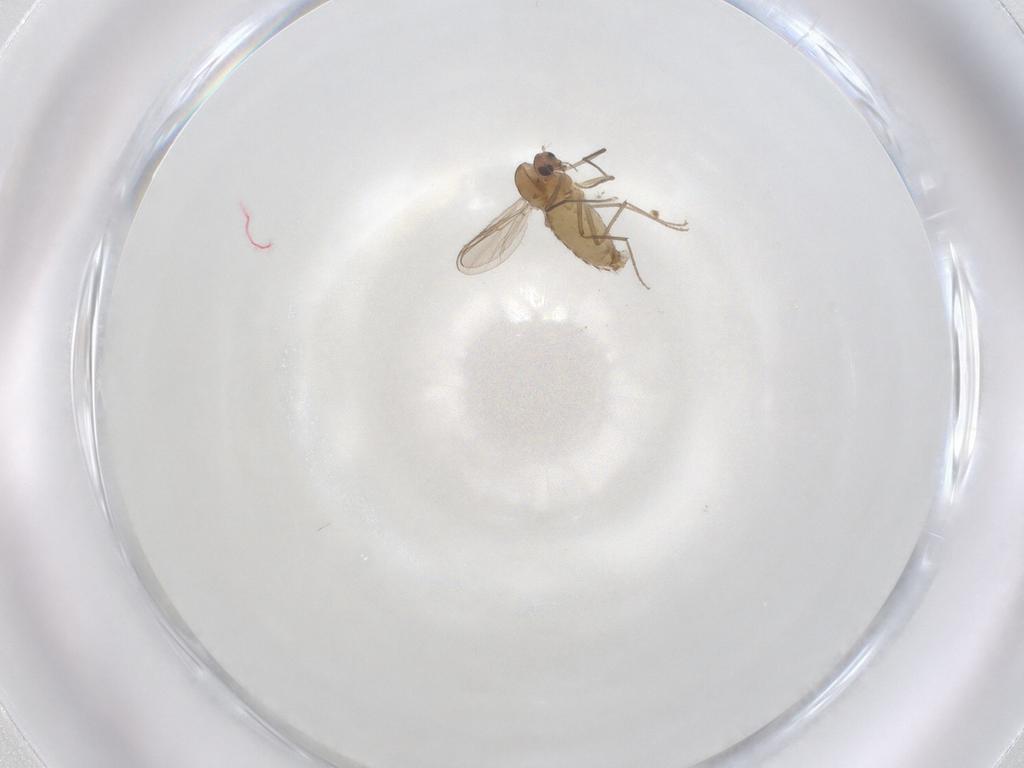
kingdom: Animalia
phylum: Arthropoda
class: Insecta
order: Diptera
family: Chironomidae
